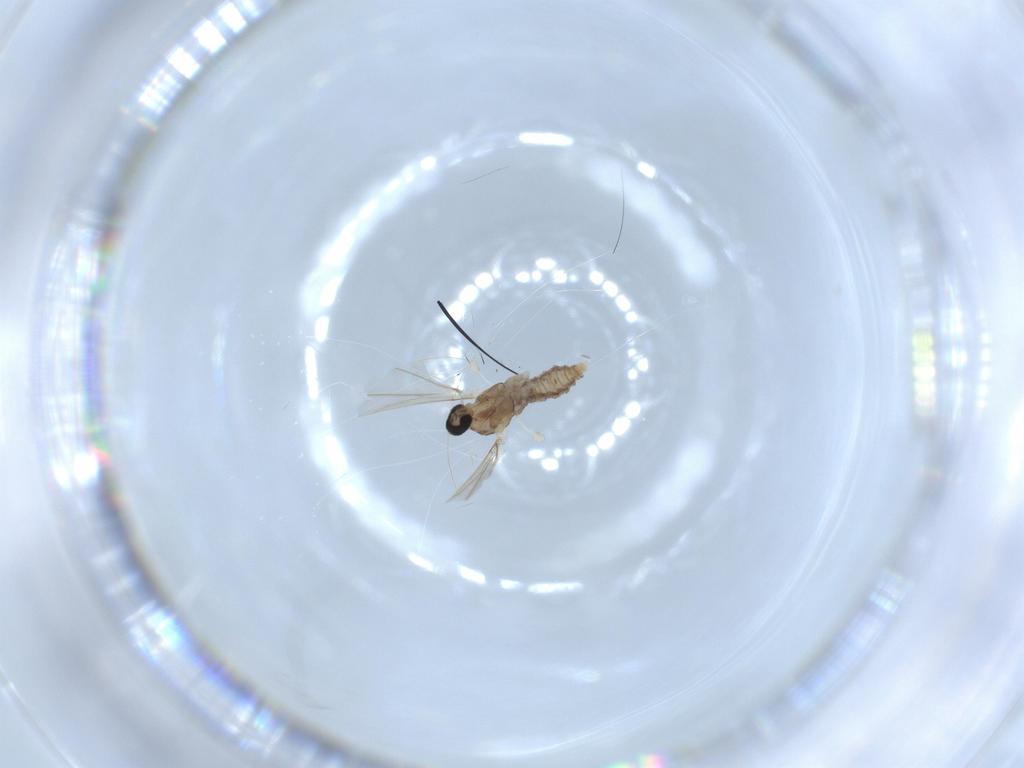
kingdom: Animalia
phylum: Arthropoda
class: Insecta
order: Diptera
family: Cecidomyiidae
